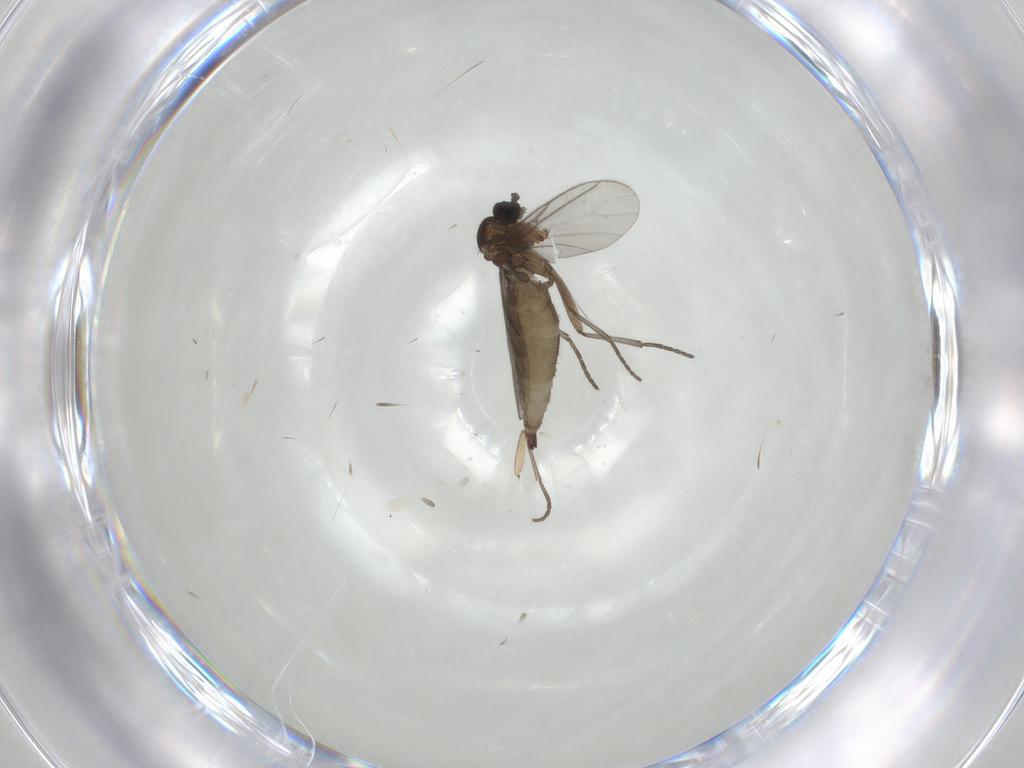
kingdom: Animalia
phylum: Arthropoda
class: Insecta
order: Diptera
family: Sciaridae
